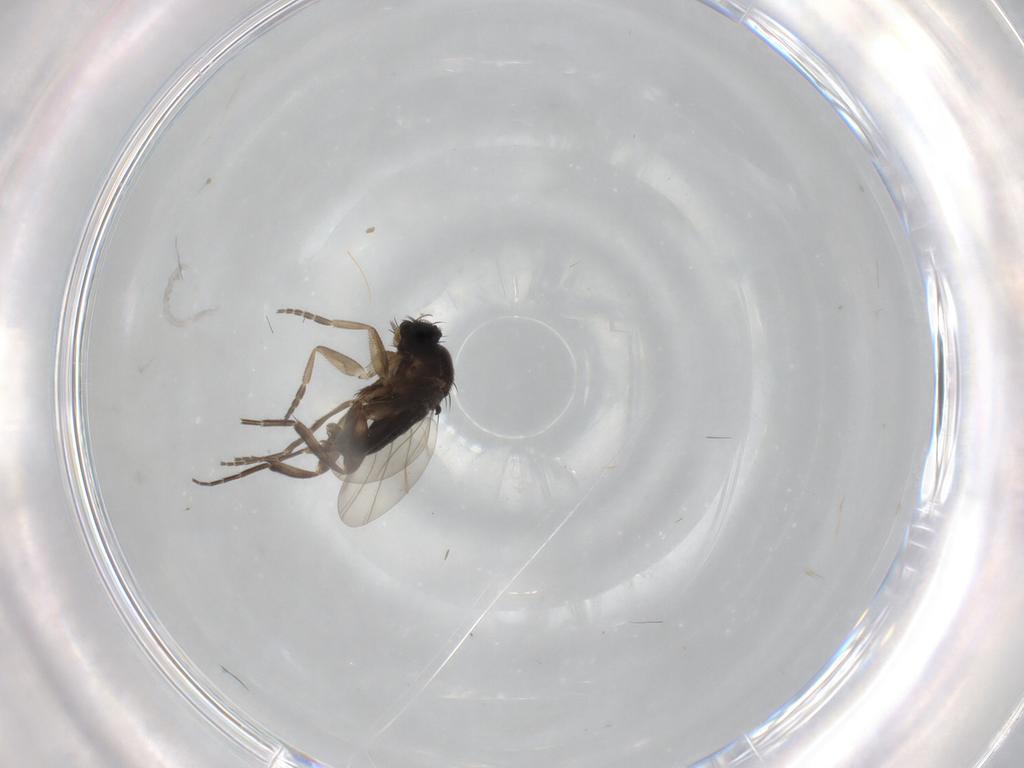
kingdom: Animalia
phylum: Arthropoda
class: Insecta
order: Diptera
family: Phoridae
